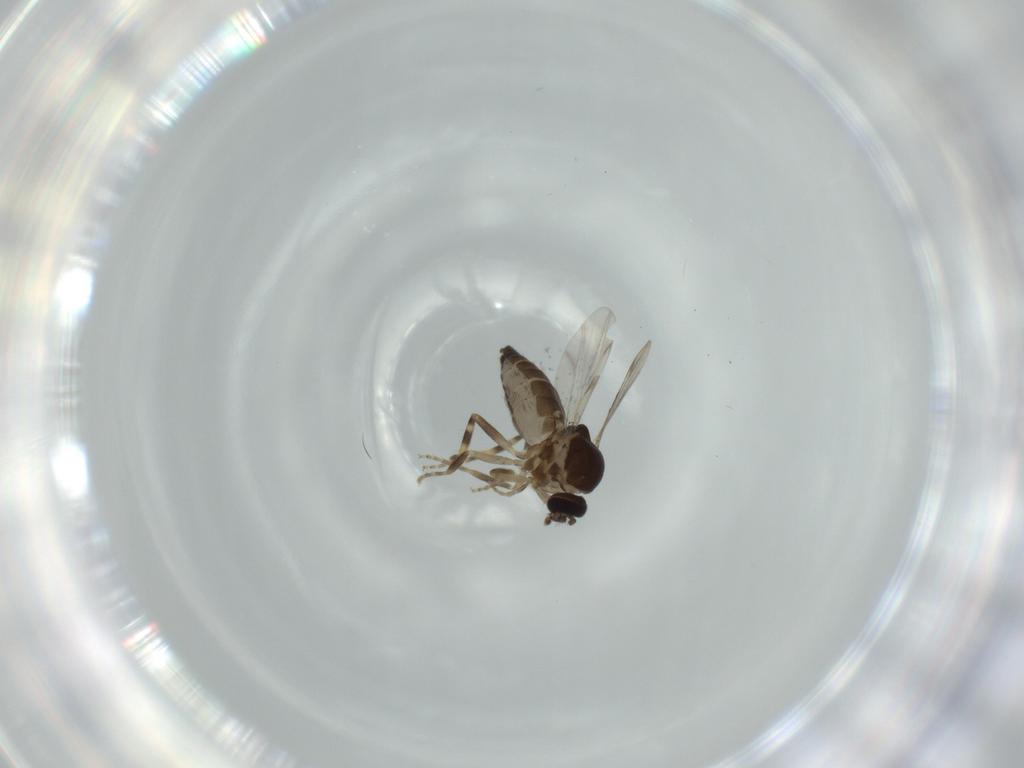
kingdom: Animalia
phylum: Arthropoda
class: Insecta
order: Diptera
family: Ceratopogonidae
